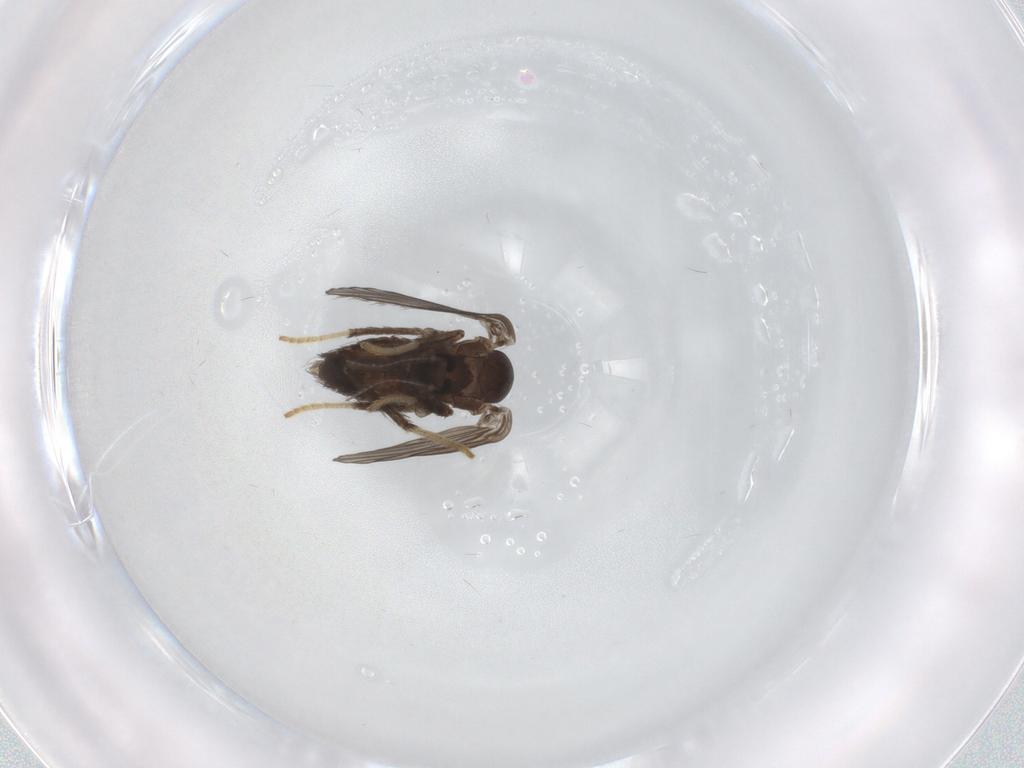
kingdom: Animalia
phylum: Arthropoda
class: Insecta
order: Diptera
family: Psychodidae
